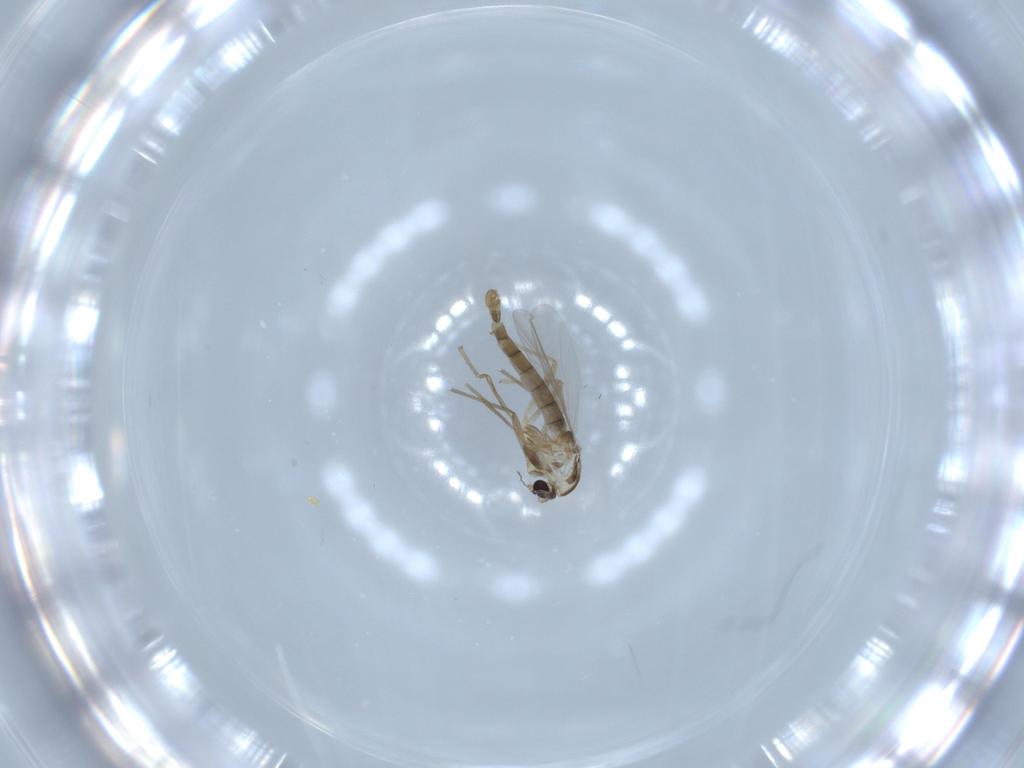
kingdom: Animalia
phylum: Arthropoda
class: Insecta
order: Diptera
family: Chironomidae
